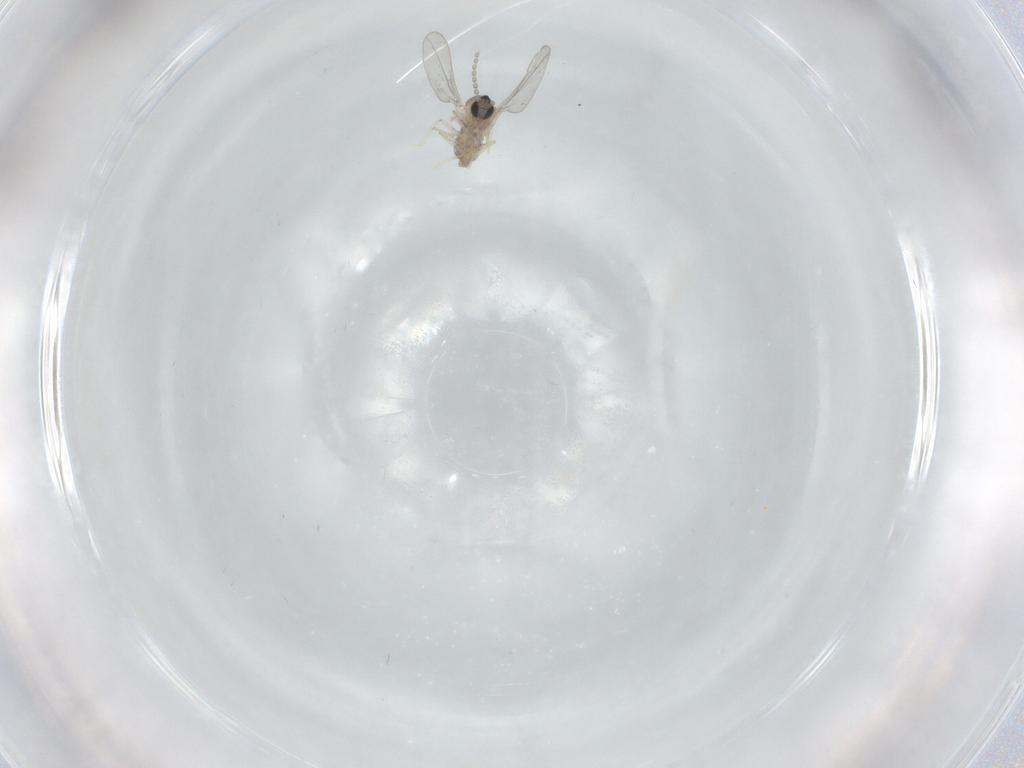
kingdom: Animalia
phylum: Arthropoda
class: Insecta
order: Diptera
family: Cecidomyiidae
